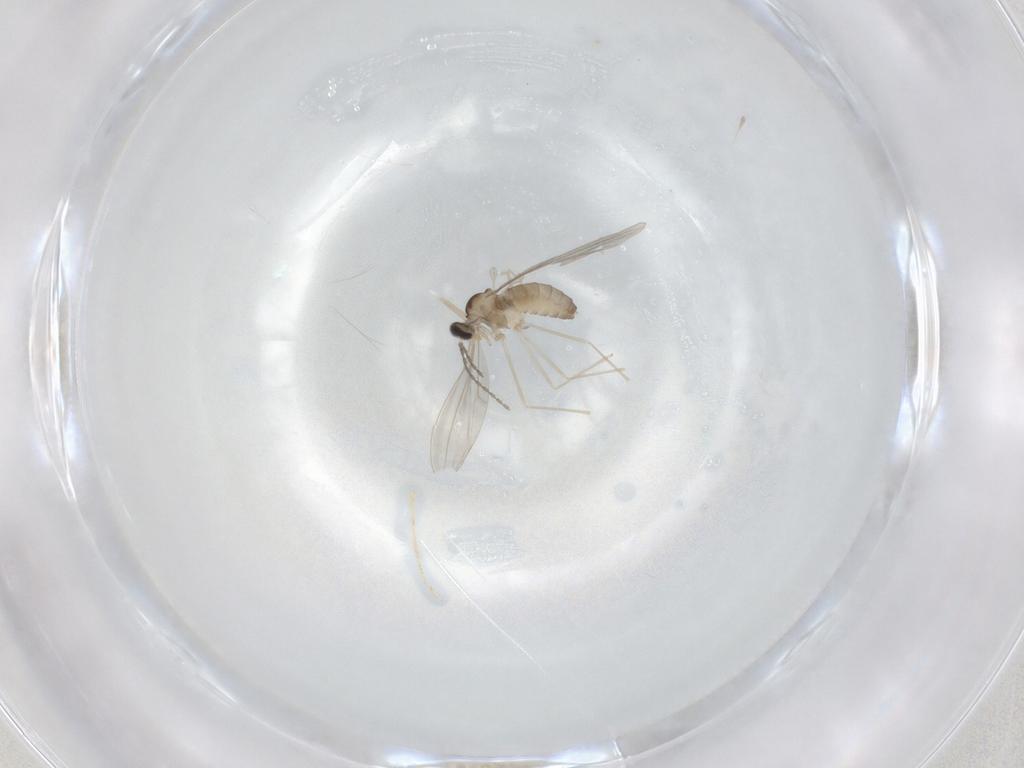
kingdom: Animalia
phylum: Arthropoda
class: Insecta
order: Diptera
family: Cecidomyiidae
